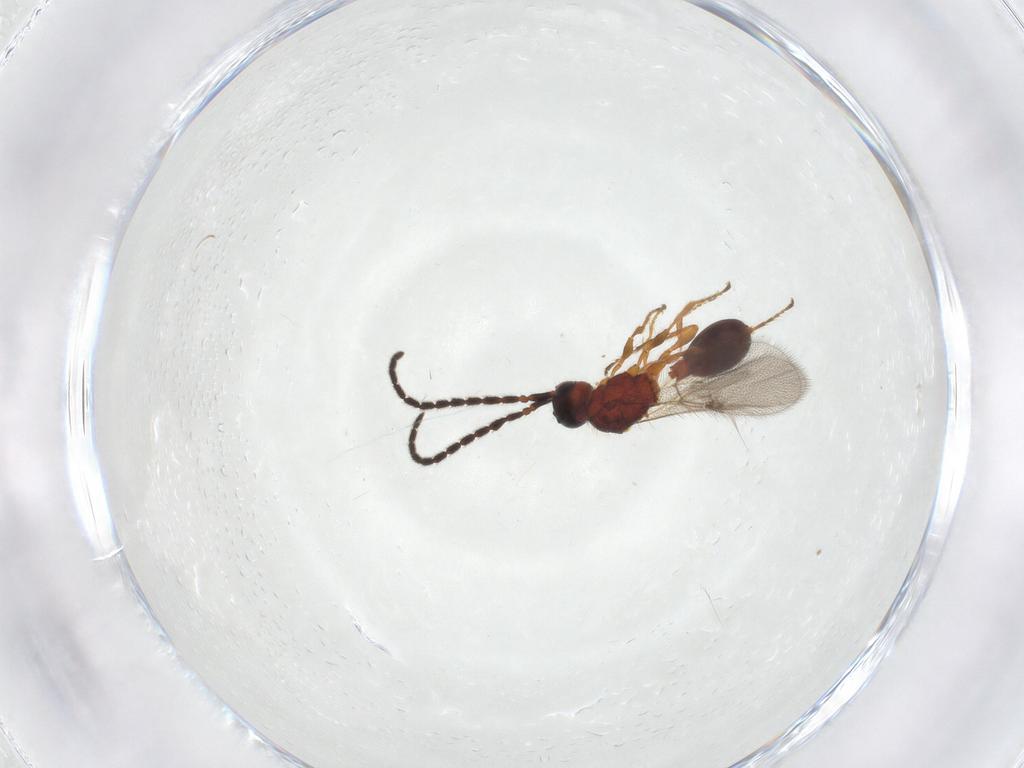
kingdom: Animalia
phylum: Arthropoda
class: Insecta
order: Hymenoptera
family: Diapriidae
